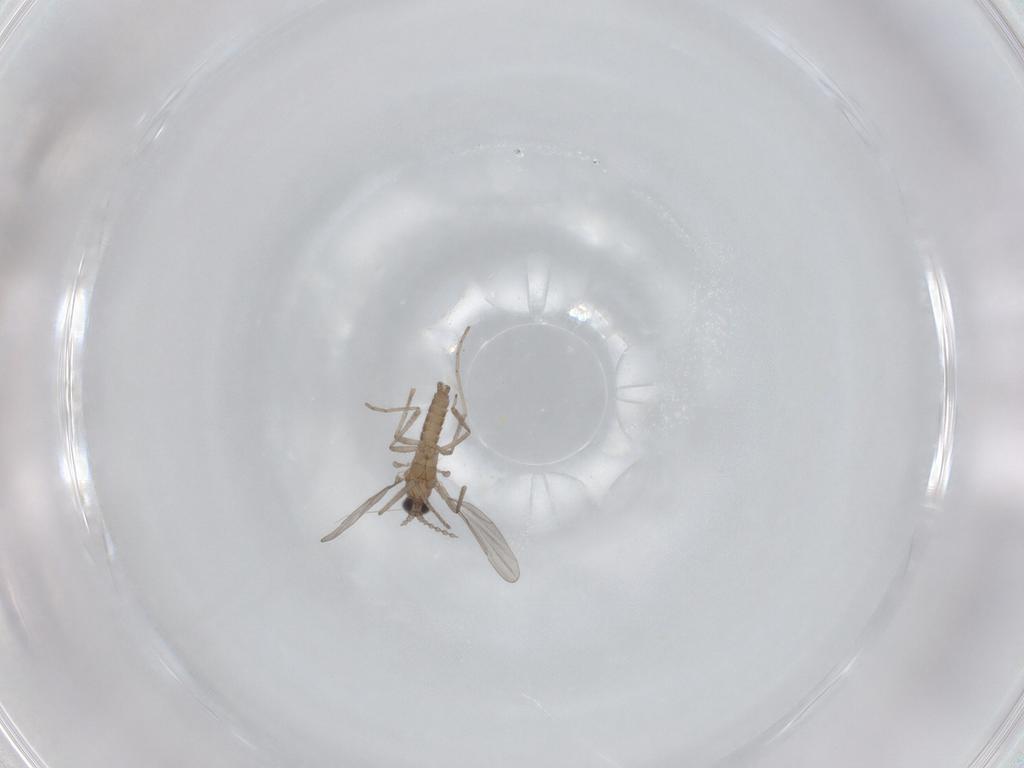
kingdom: Animalia
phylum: Arthropoda
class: Insecta
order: Diptera
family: Cecidomyiidae
